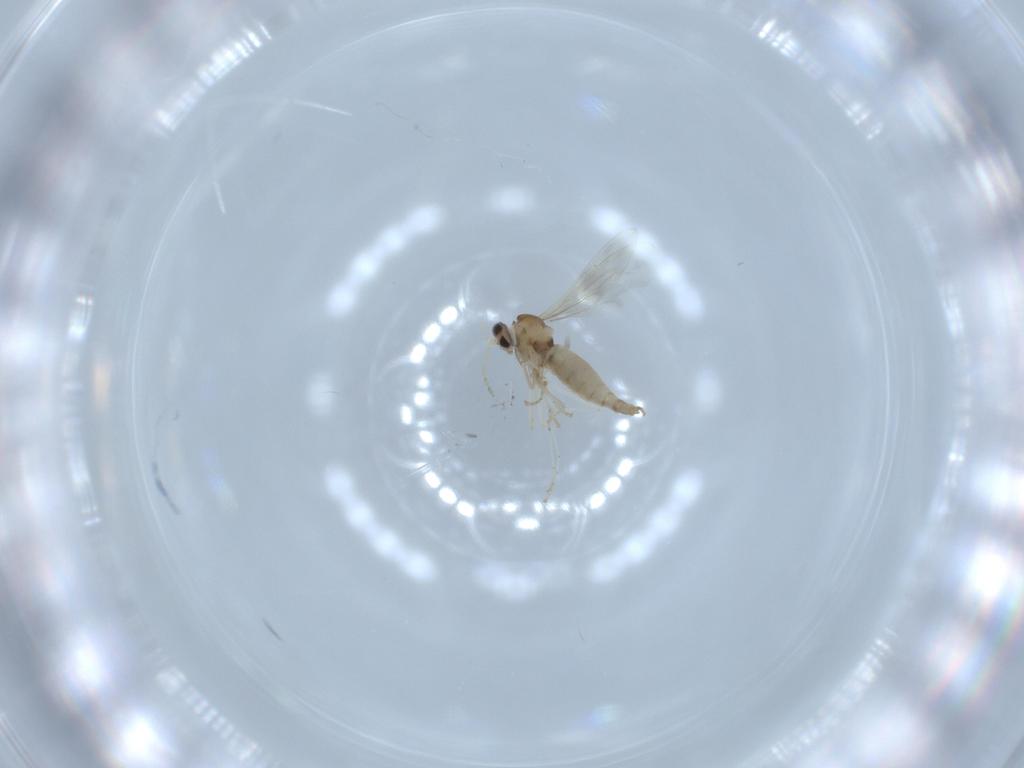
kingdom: Animalia
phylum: Arthropoda
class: Insecta
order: Diptera
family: Cecidomyiidae
